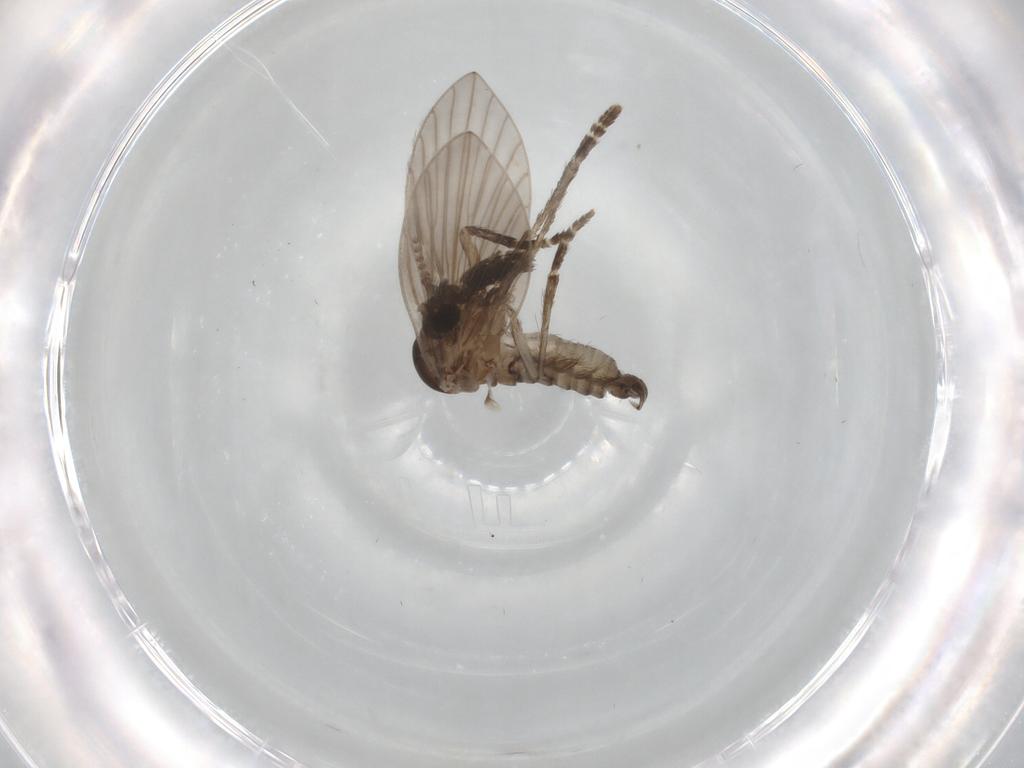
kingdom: Animalia
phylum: Arthropoda
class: Insecta
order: Diptera
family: Psychodidae
